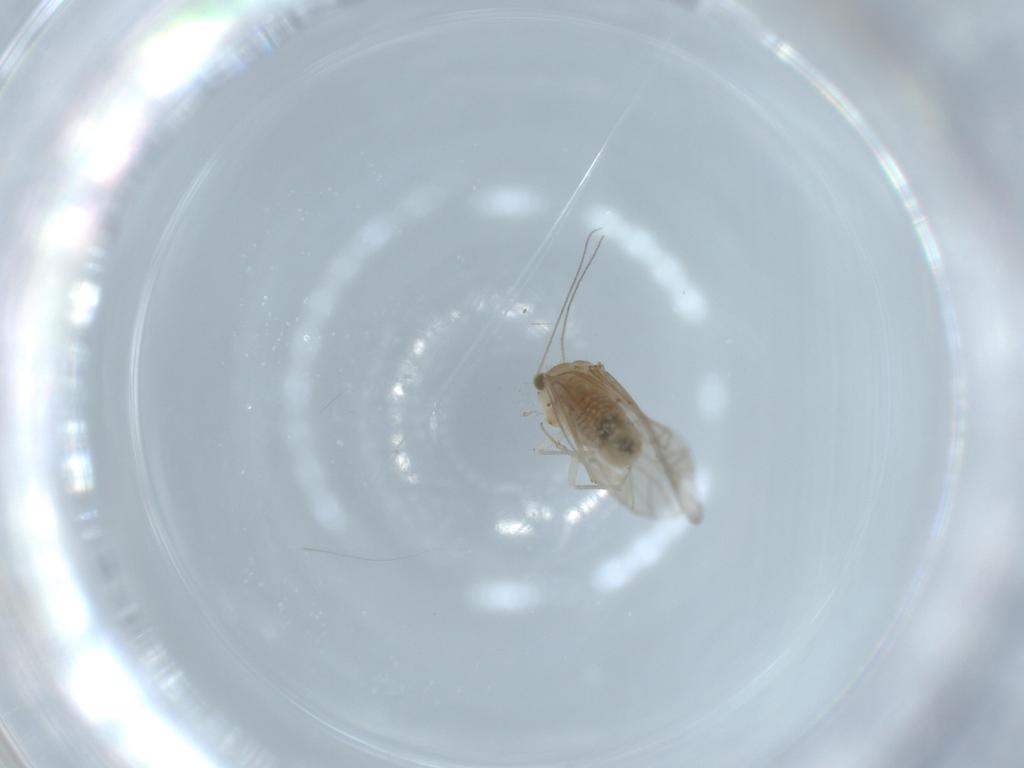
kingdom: Animalia
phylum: Arthropoda
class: Insecta
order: Psocodea
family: Lachesillidae
